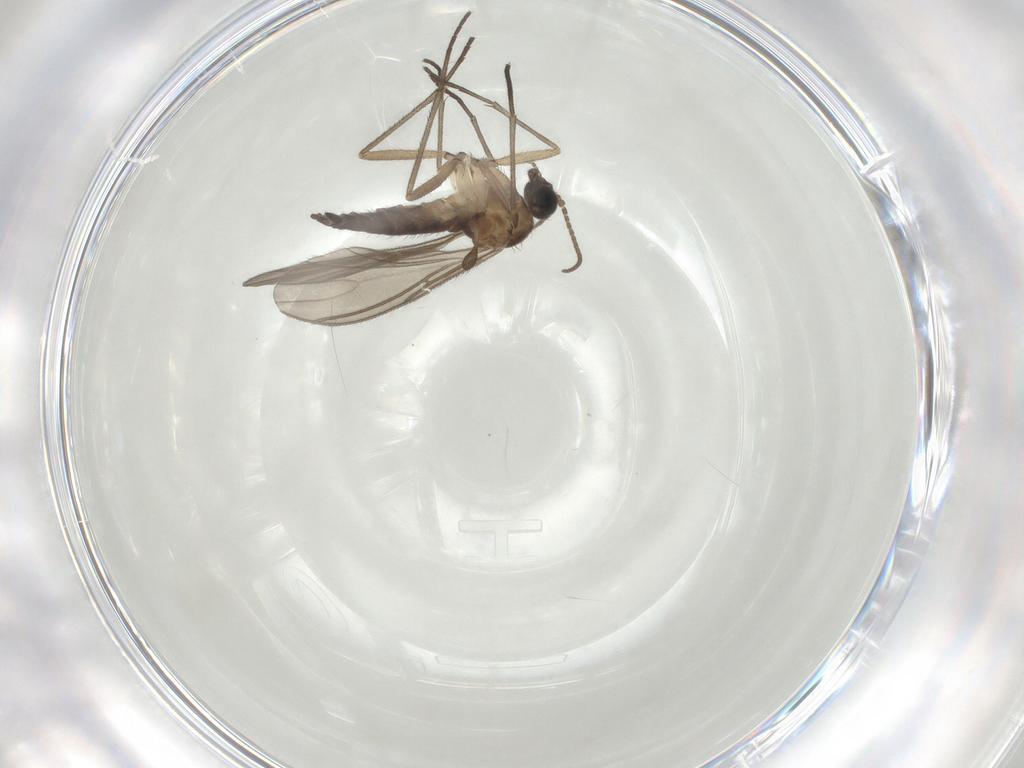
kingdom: Animalia
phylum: Arthropoda
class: Insecta
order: Diptera
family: Sciaridae
